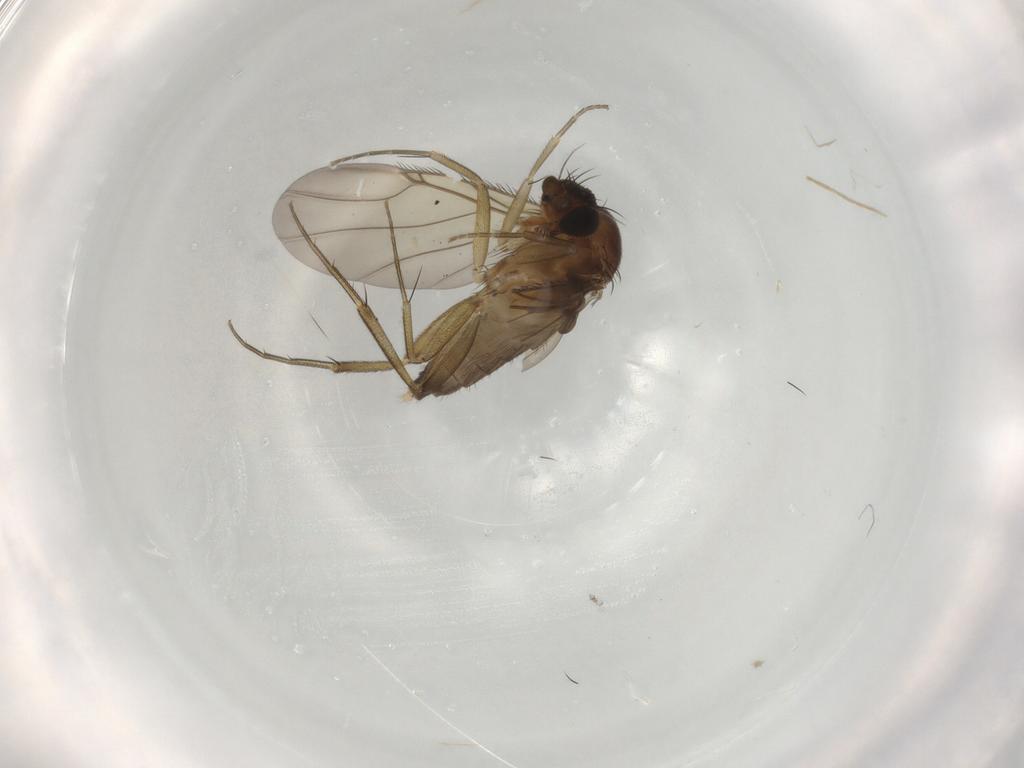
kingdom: Animalia
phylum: Arthropoda
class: Insecta
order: Diptera
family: Phoridae
